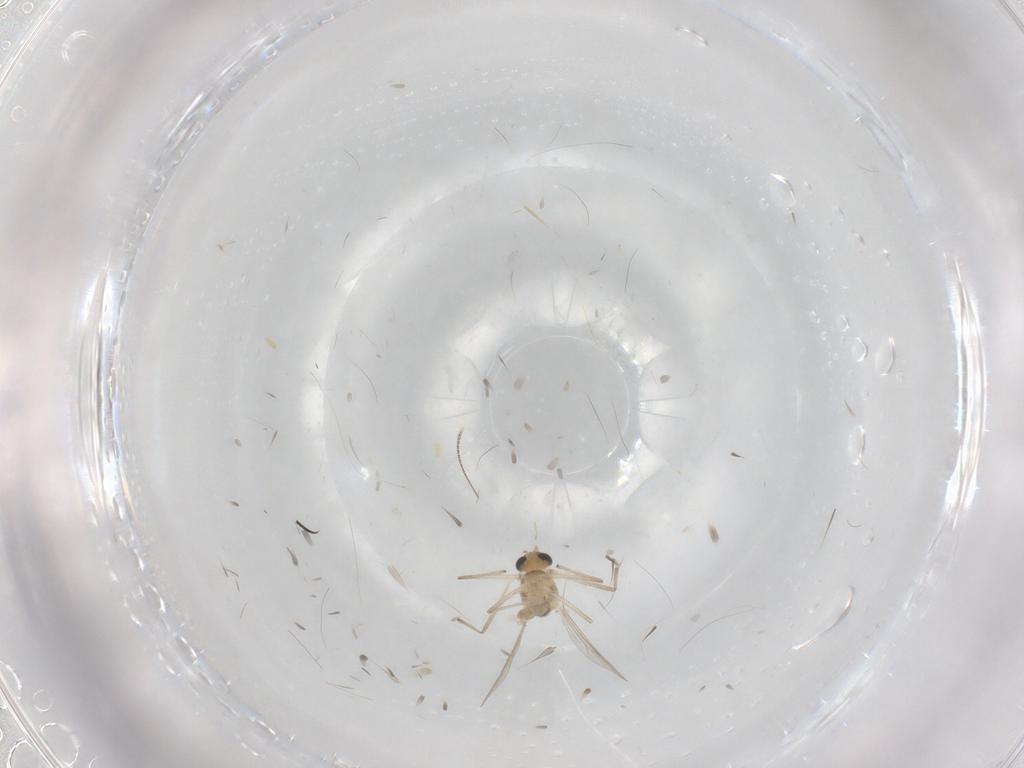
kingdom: Animalia
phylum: Arthropoda
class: Insecta
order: Diptera
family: Chironomidae
